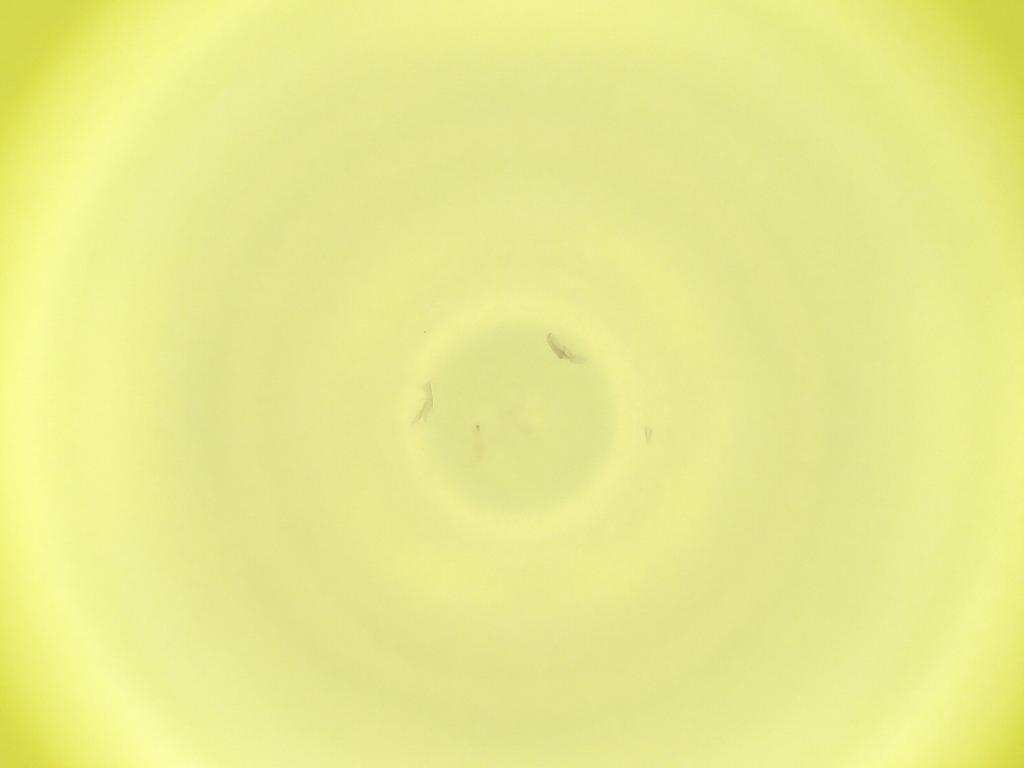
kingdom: Animalia
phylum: Arthropoda
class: Insecta
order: Diptera
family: Cecidomyiidae
